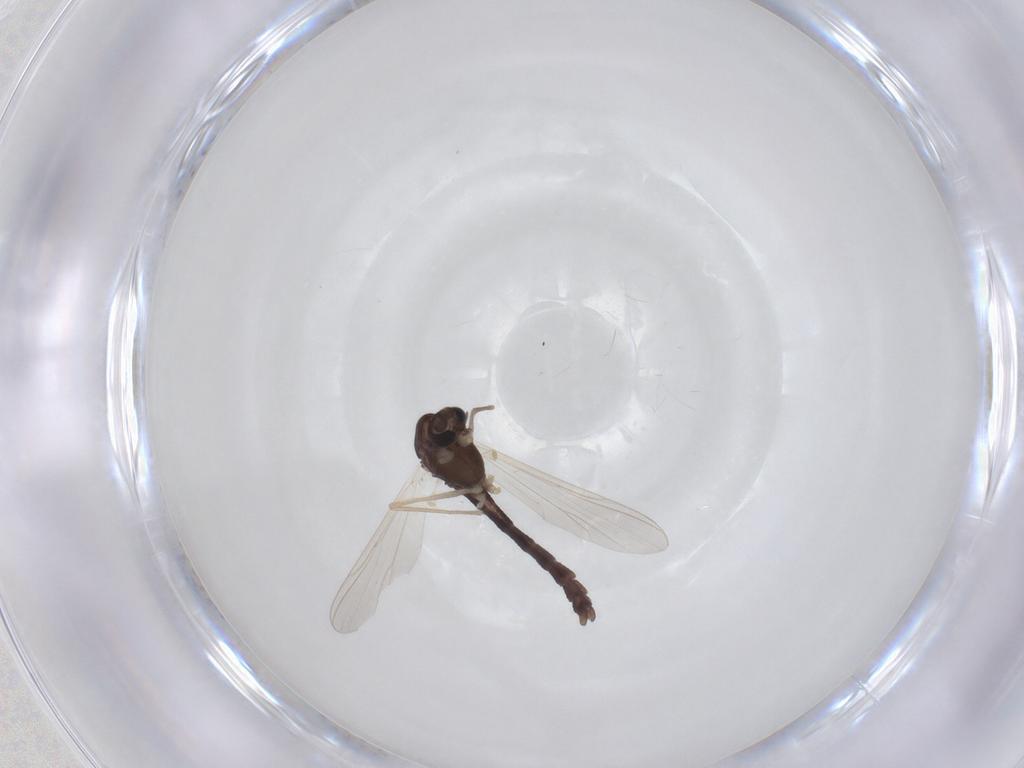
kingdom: Animalia
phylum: Arthropoda
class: Insecta
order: Diptera
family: Chironomidae
